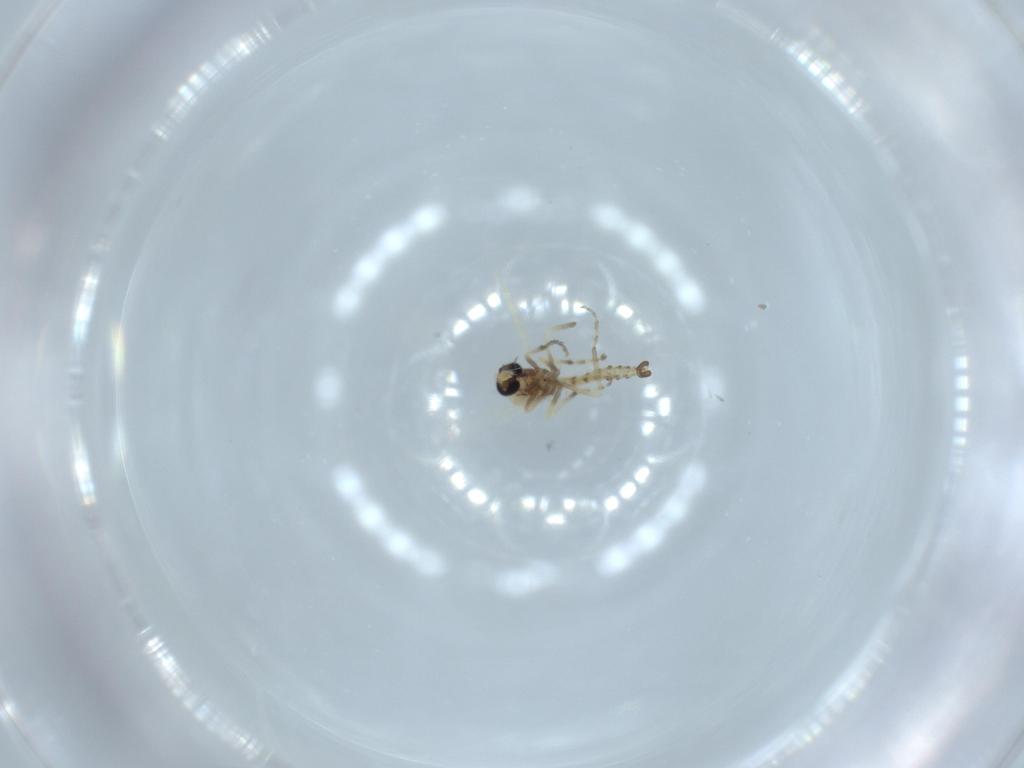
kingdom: Animalia
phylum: Arthropoda
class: Insecta
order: Diptera
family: Ceratopogonidae
